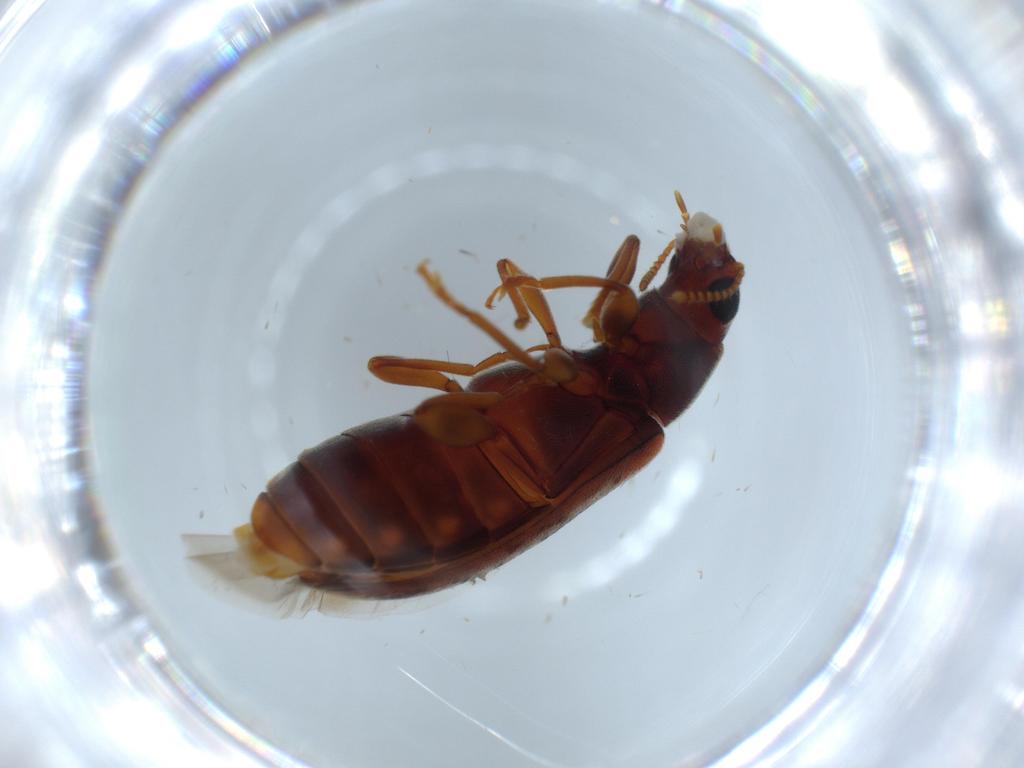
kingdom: Animalia
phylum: Arthropoda
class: Insecta
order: Coleoptera
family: Mycteridae
